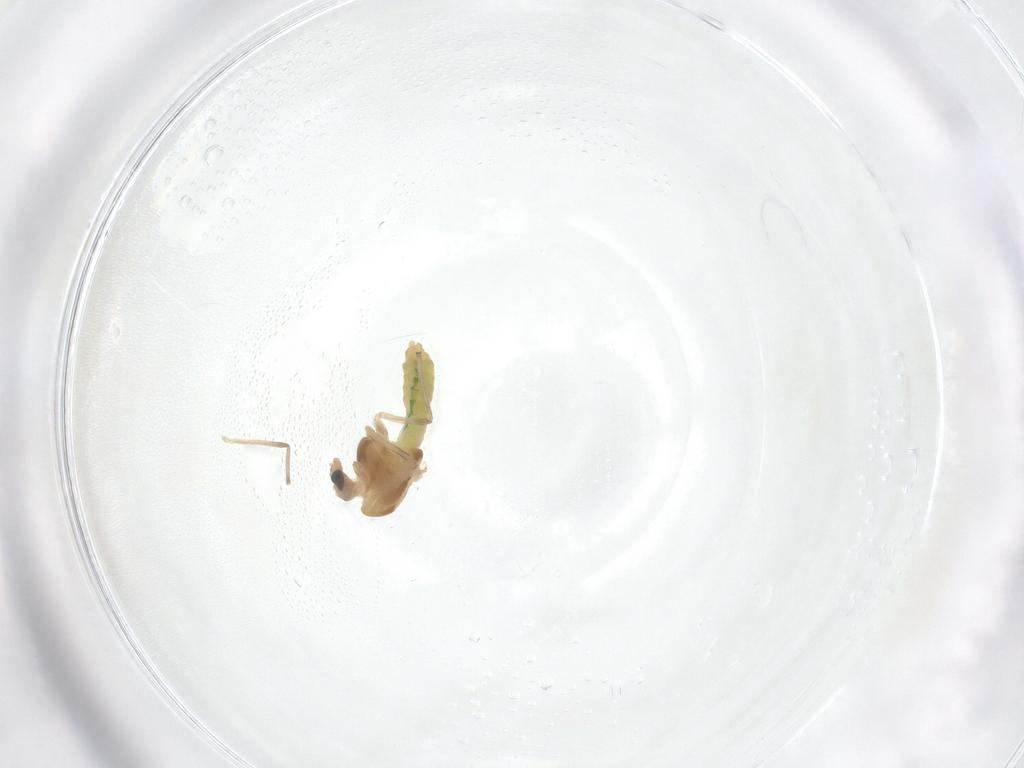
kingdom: Animalia
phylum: Arthropoda
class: Insecta
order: Diptera
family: Chironomidae
